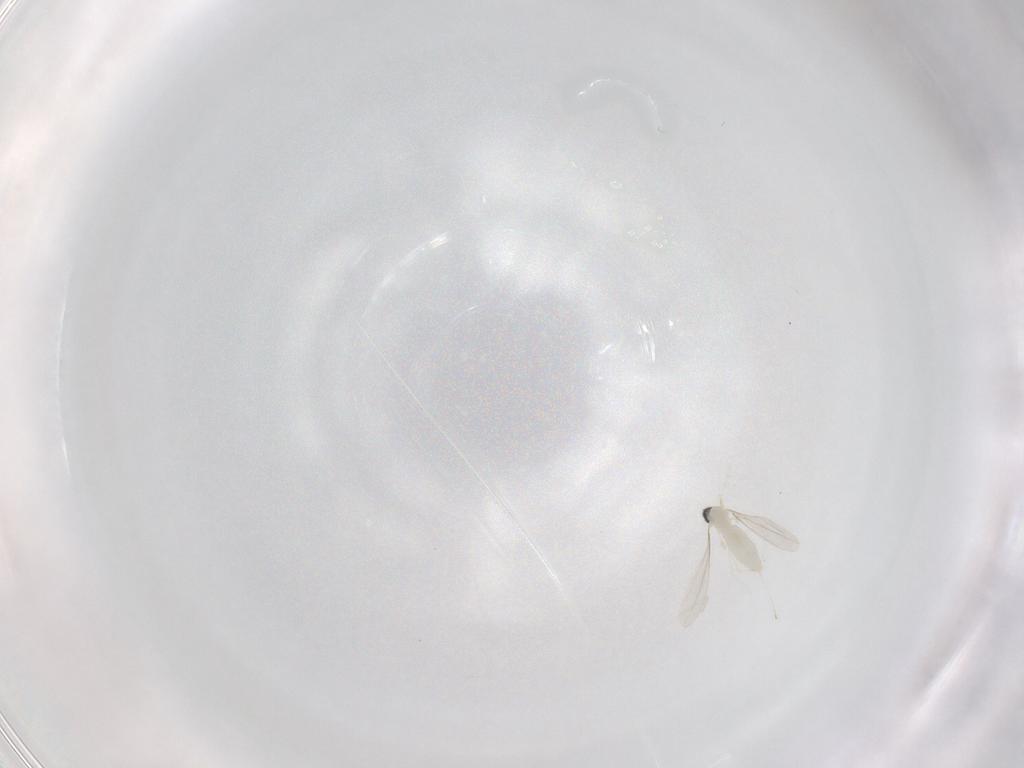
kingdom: Animalia
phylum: Arthropoda
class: Insecta
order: Diptera
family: Cecidomyiidae
